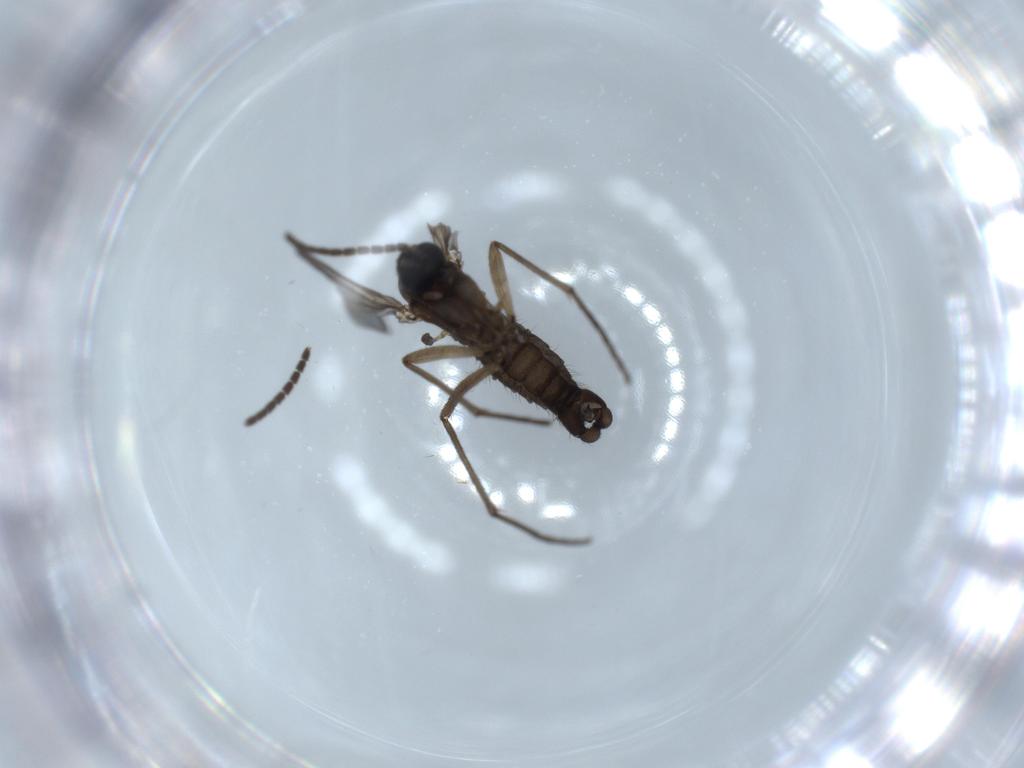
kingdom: Animalia
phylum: Arthropoda
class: Insecta
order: Diptera
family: Sciaridae
